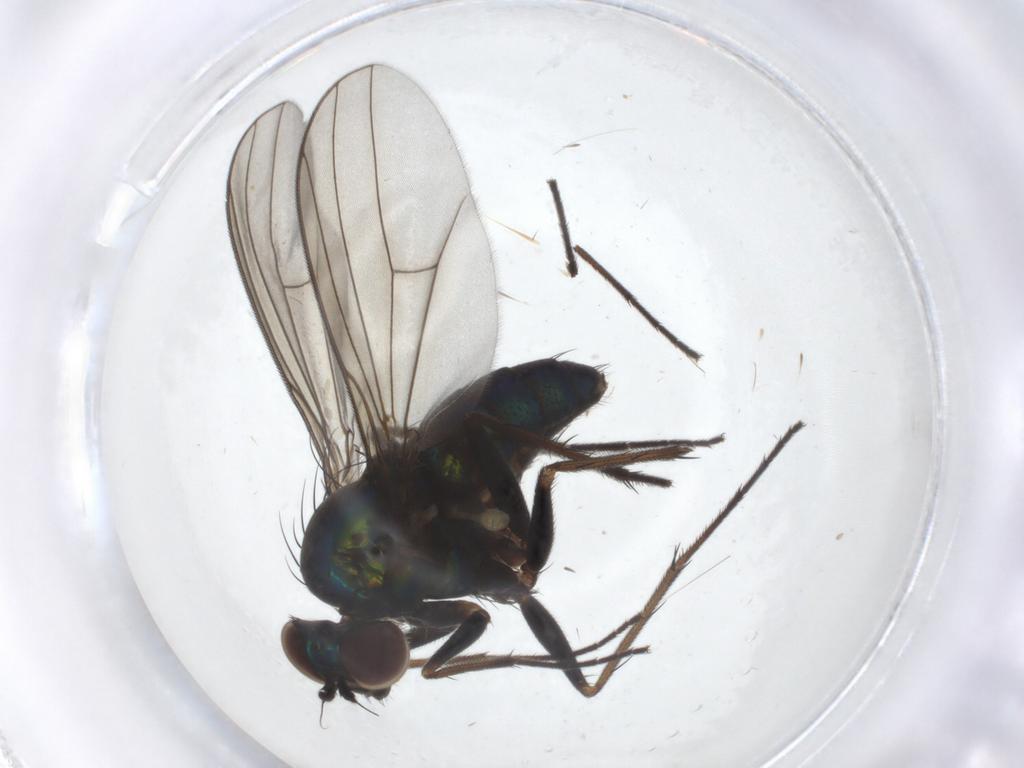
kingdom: Animalia
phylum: Arthropoda
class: Insecta
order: Diptera
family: Dolichopodidae
